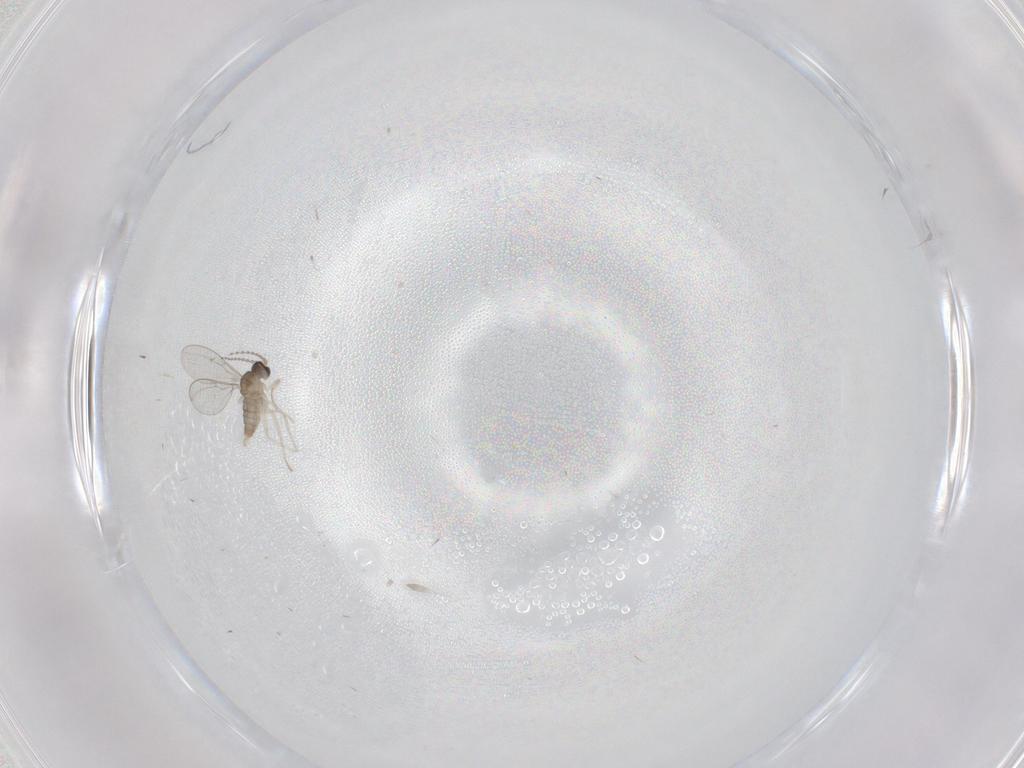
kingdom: Animalia
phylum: Arthropoda
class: Insecta
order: Diptera
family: Cecidomyiidae
